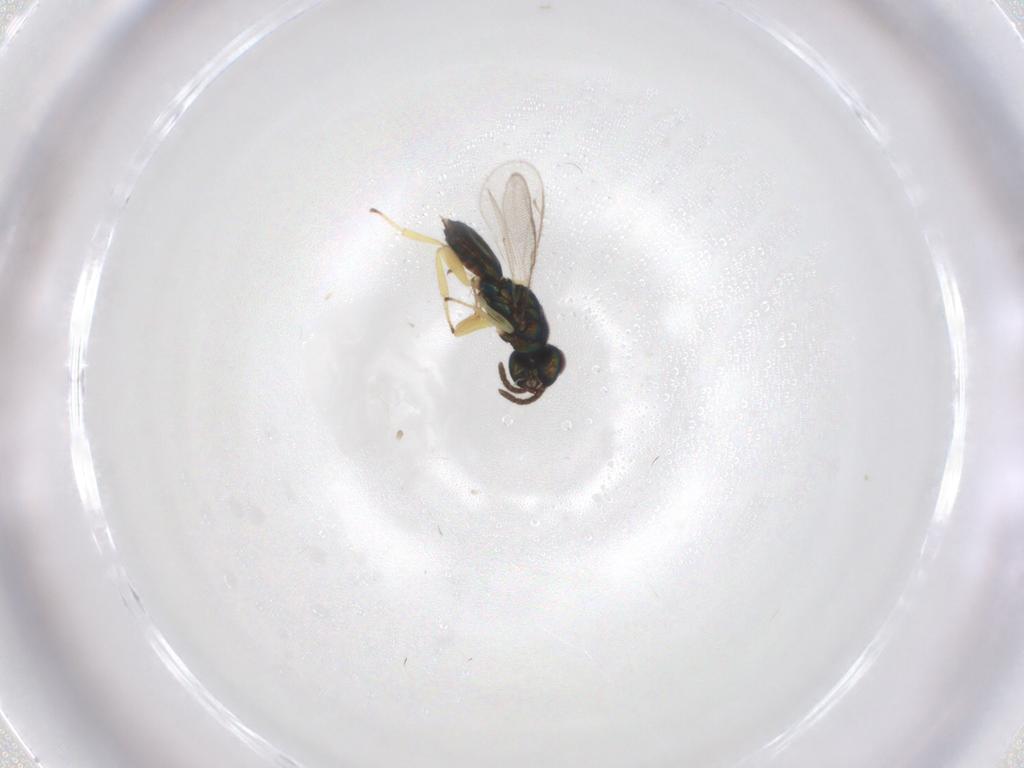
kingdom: Animalia
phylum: Arthropoda
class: Insecta
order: Hymenoptera
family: Eupelmidae
